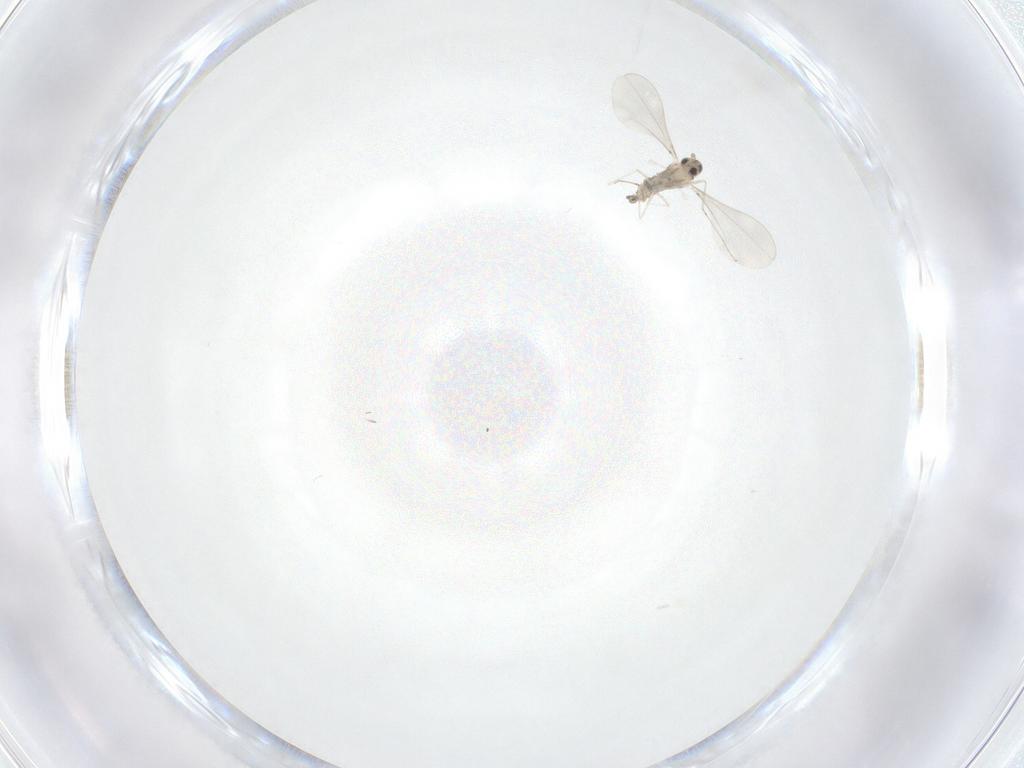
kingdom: Animalia
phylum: Arthropoda
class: Insecta
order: Diptera
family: Cecidomyiidae
